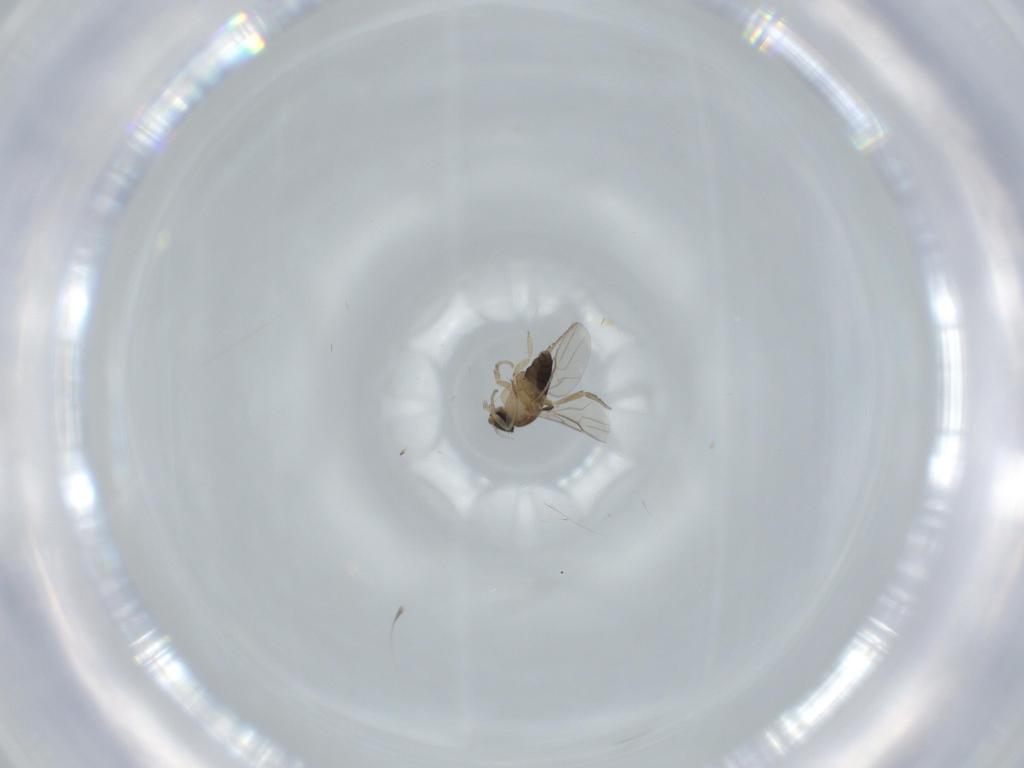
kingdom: Animalia
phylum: Arthropoda
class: Insecta
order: Diptera
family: Phoridae
